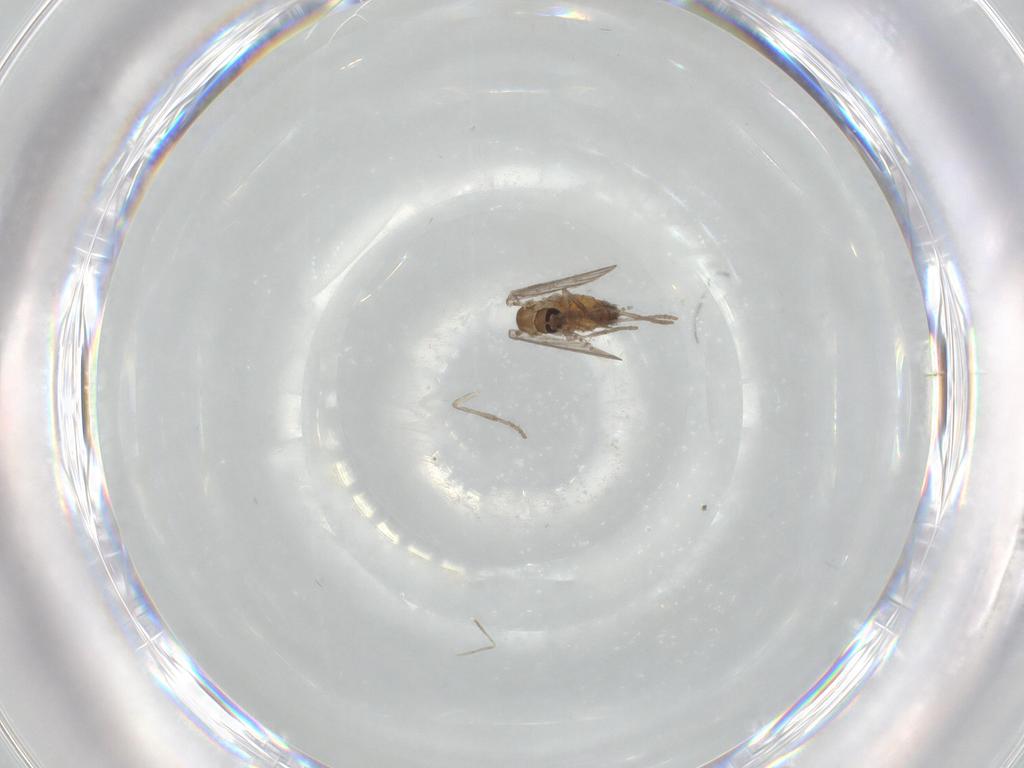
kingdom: Animalia
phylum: Arthropoda
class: Insecta
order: Diptera
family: Psychodidae
